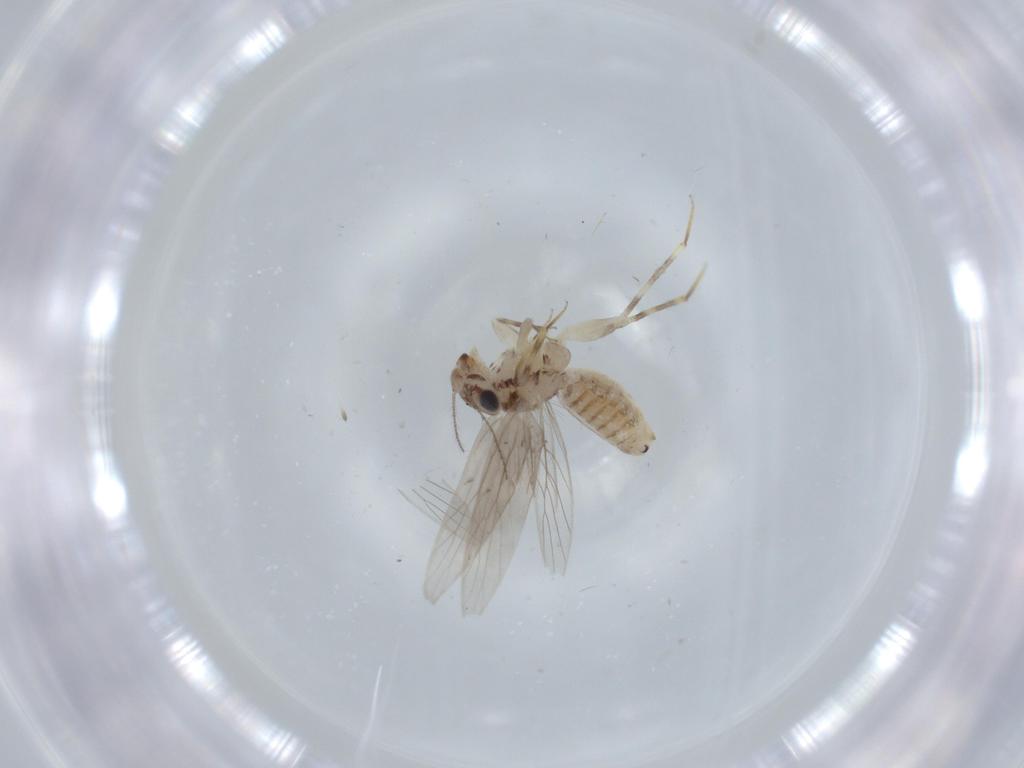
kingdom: Animalia
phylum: Arthropoda
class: Insecta
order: Psocodea
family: Lepidopsocidae
